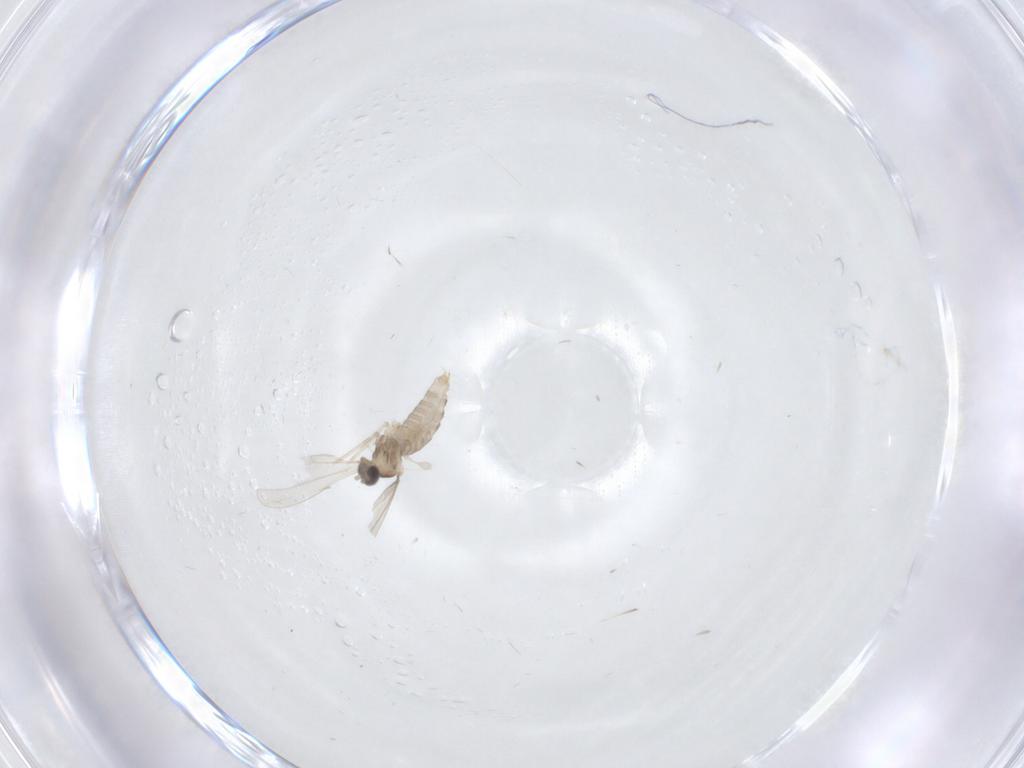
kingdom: Animalia
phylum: Arthropoda
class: Insecta
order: Diptera
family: Cecidomyiidae
